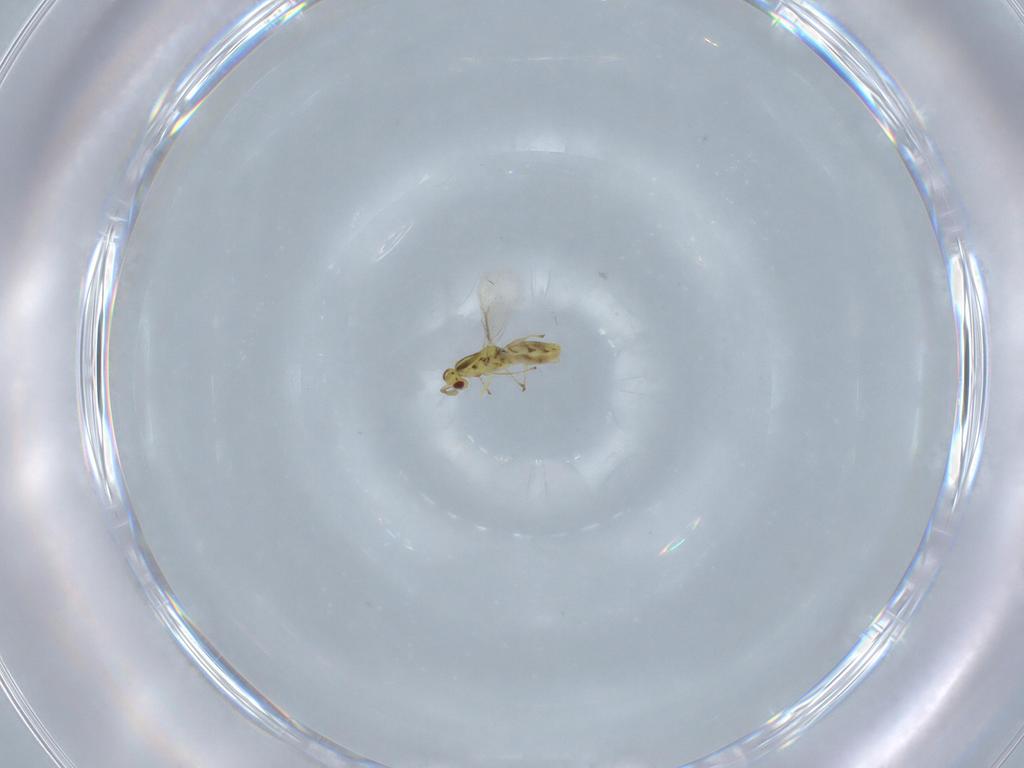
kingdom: Animalia
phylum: Arthropoda
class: Insecta
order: Hymenoptera
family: Eulophidae
